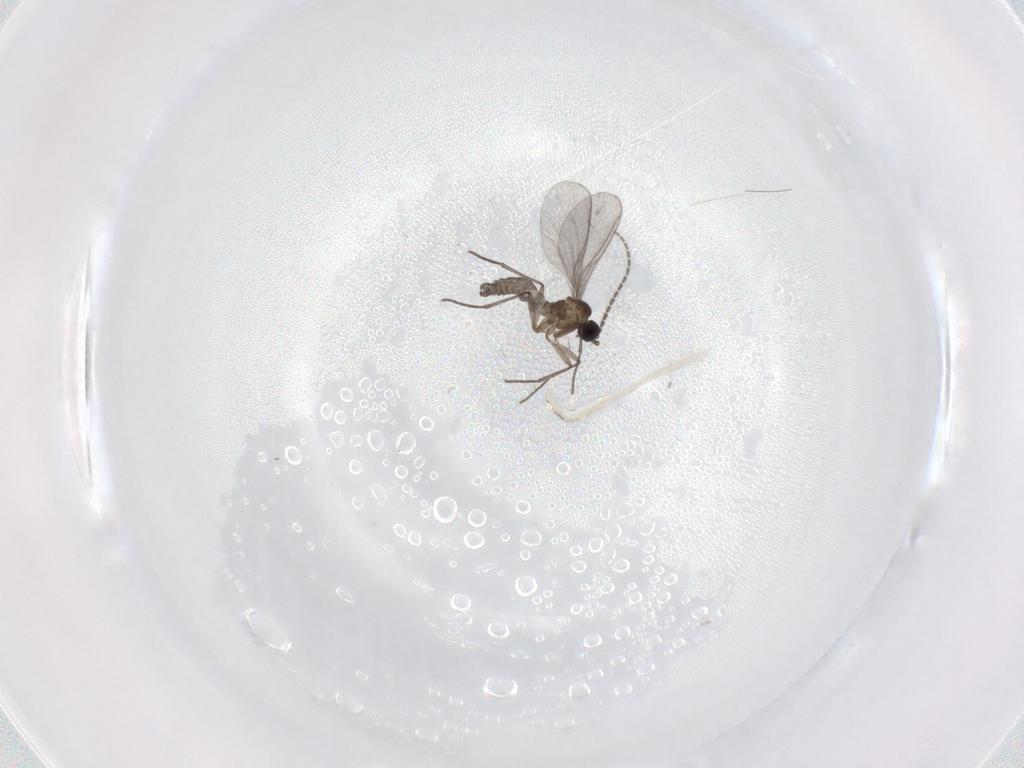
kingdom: Animalia
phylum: Arthropoda
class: Insecta
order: Diptera
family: Sciaridae
